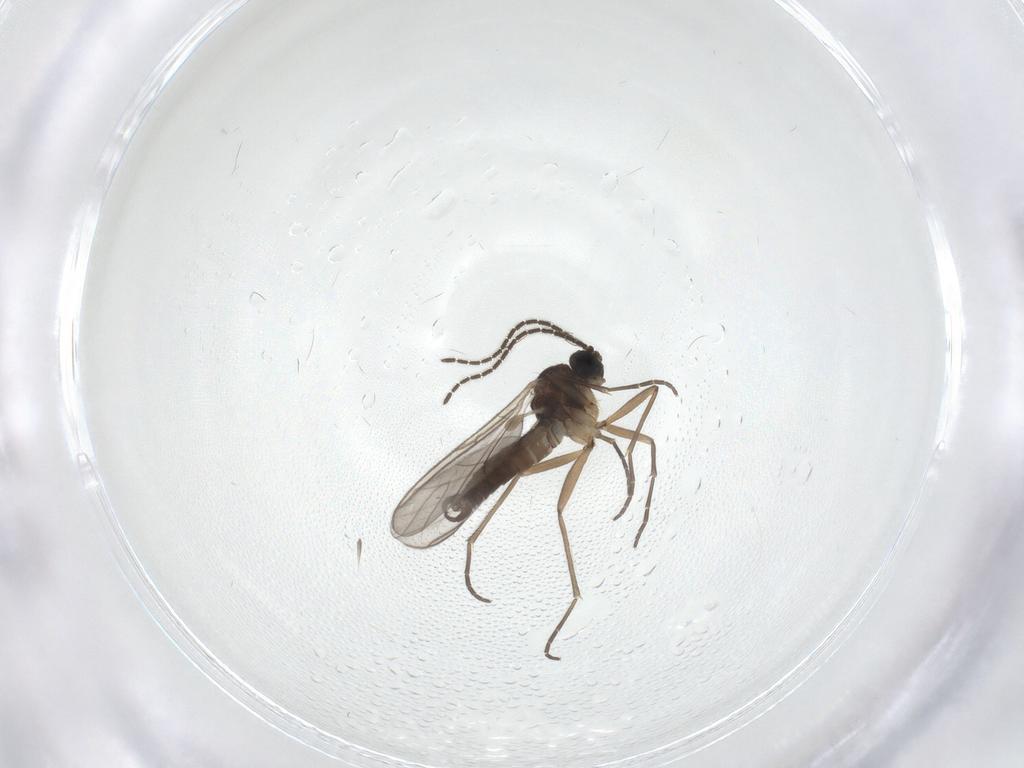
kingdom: Animalia
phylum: Arthropoda
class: Insecta
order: Diptera
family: Sciaridae
